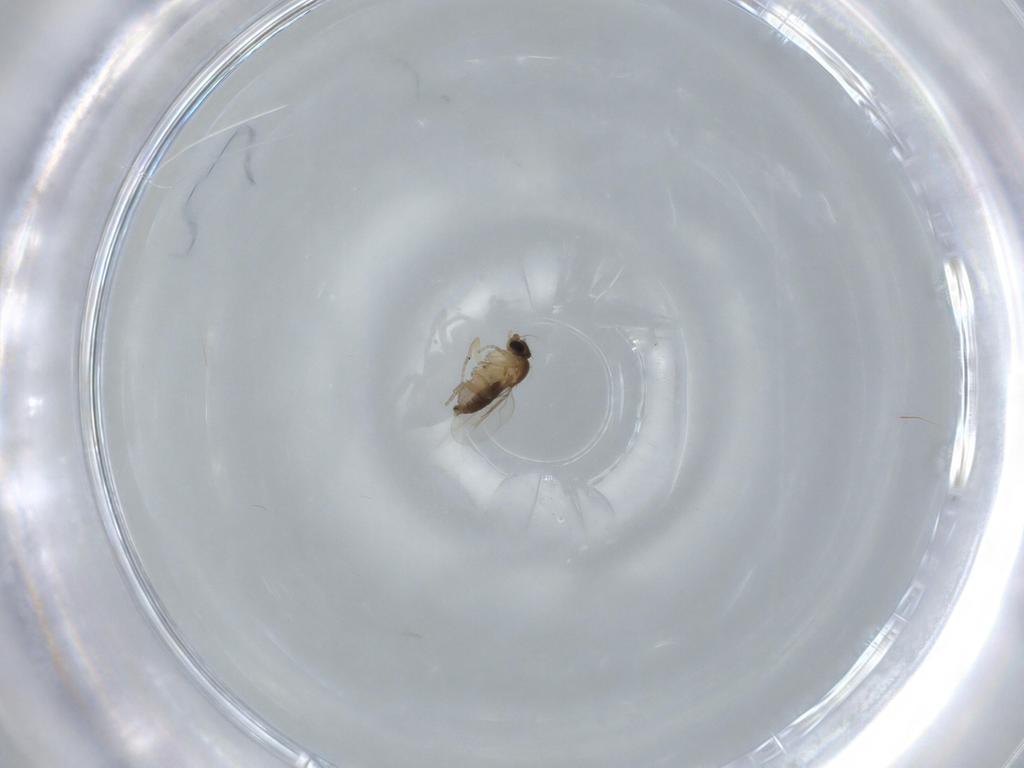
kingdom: Animalia
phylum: Arthropoda
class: Insecta
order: Diptera
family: Phoridae
